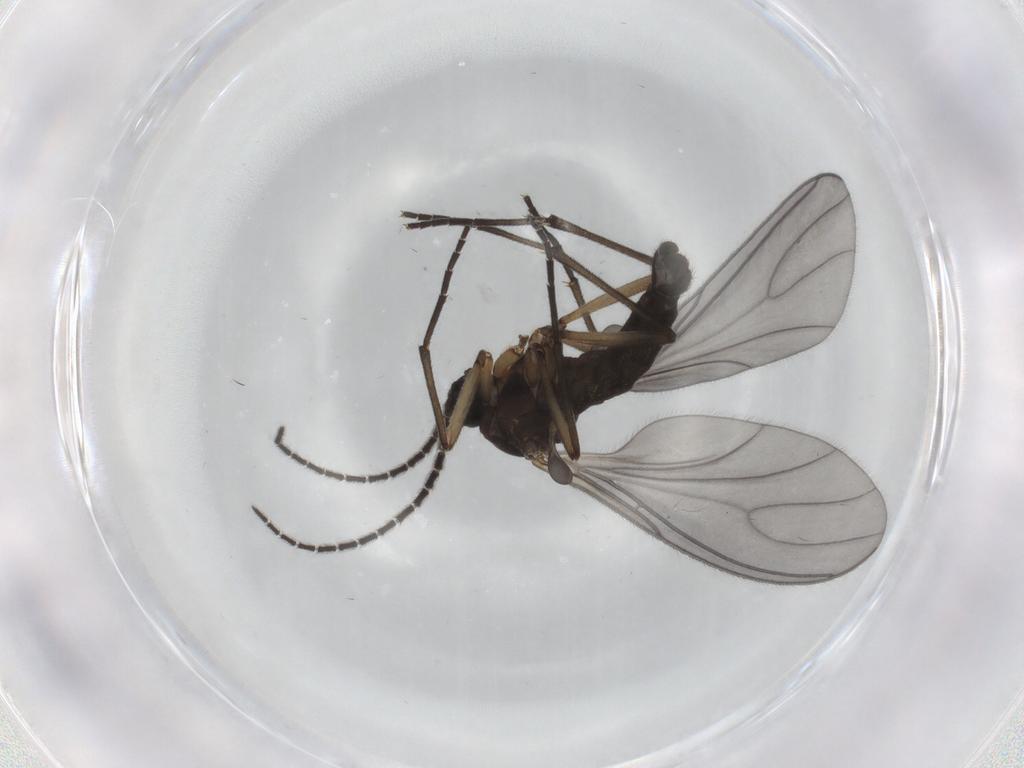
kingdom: Animalia
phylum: Arthropoda
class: Insecta
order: Diptera
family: Sciaridae
